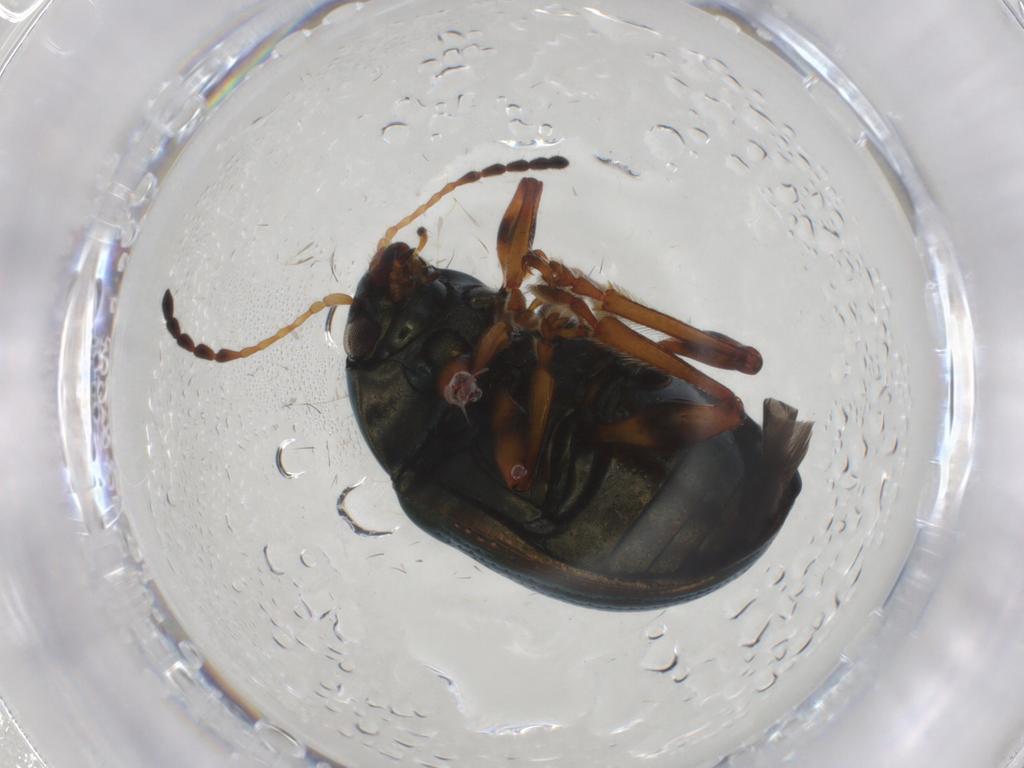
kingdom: Animalia
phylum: Arthropoda
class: Insecta
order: Coleoptera
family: Chrysomelidae
